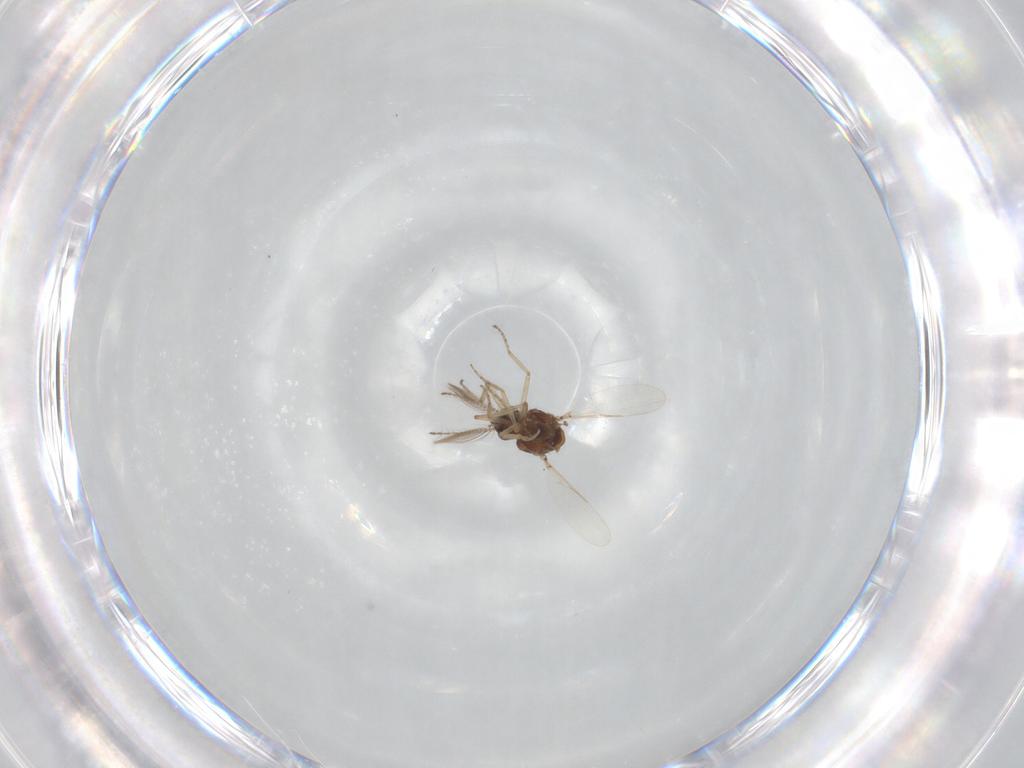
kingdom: Animalia
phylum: Arthropoda
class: Insecta
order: Diptera
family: Ceratopogonidae
